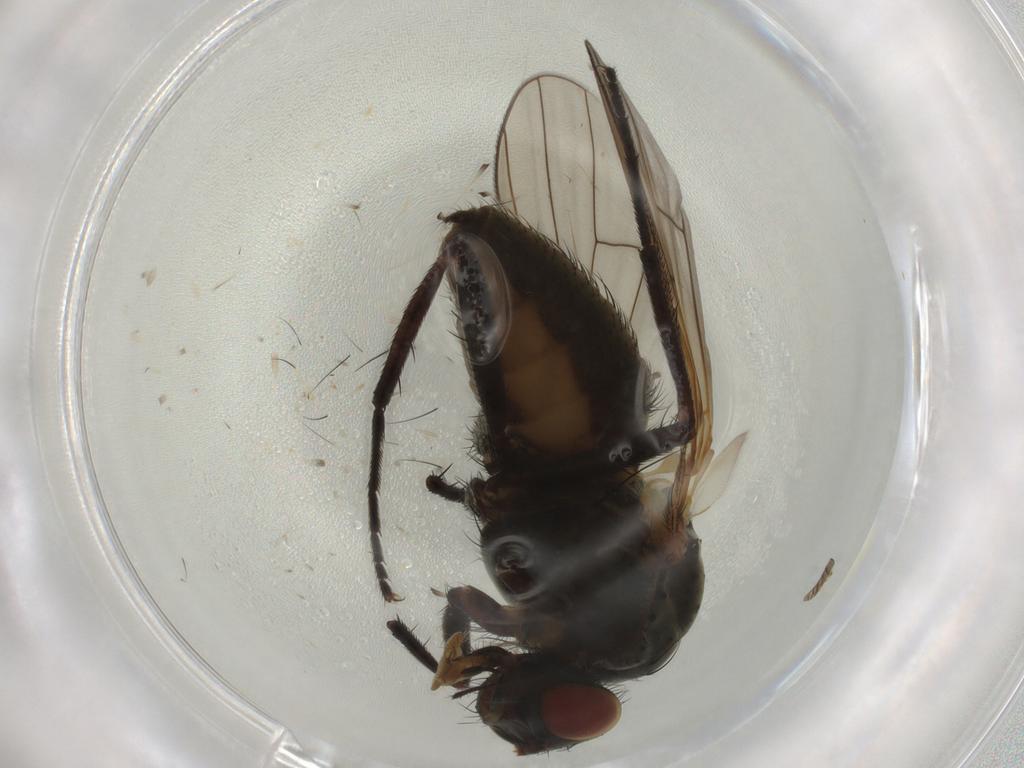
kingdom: Animalia
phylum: Arthropoda
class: Insecta
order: Diptera
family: Anthomyiidae
